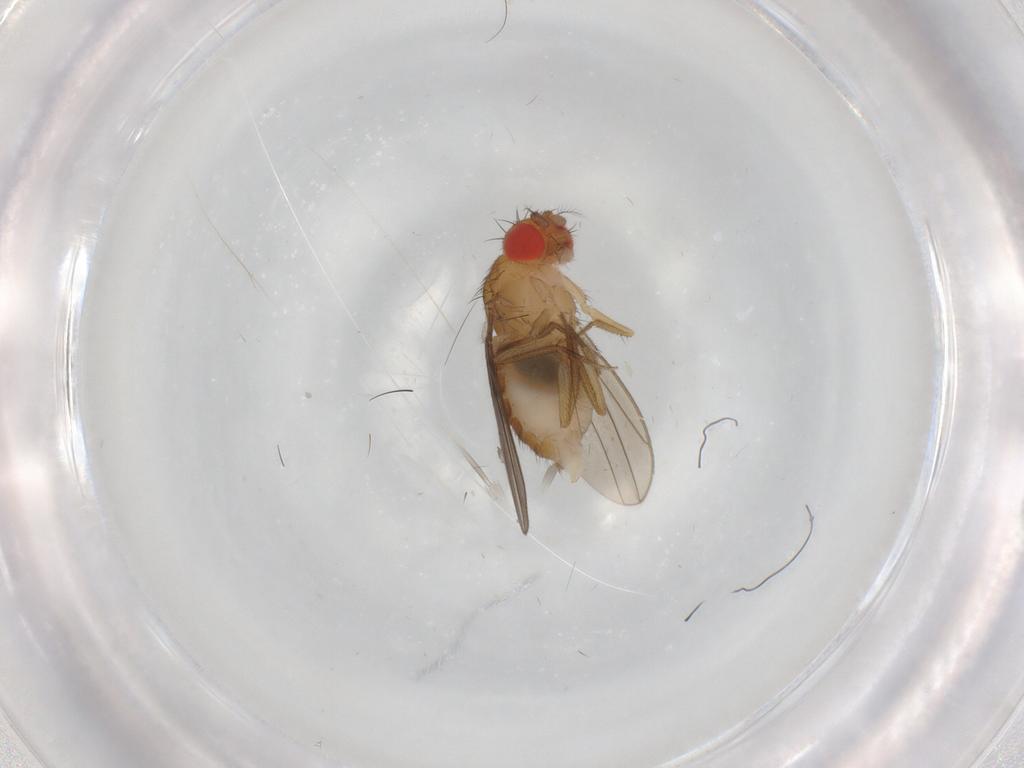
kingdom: Animalia
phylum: Arthropoda
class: Insecta
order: Diptera
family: Drosophilidae
